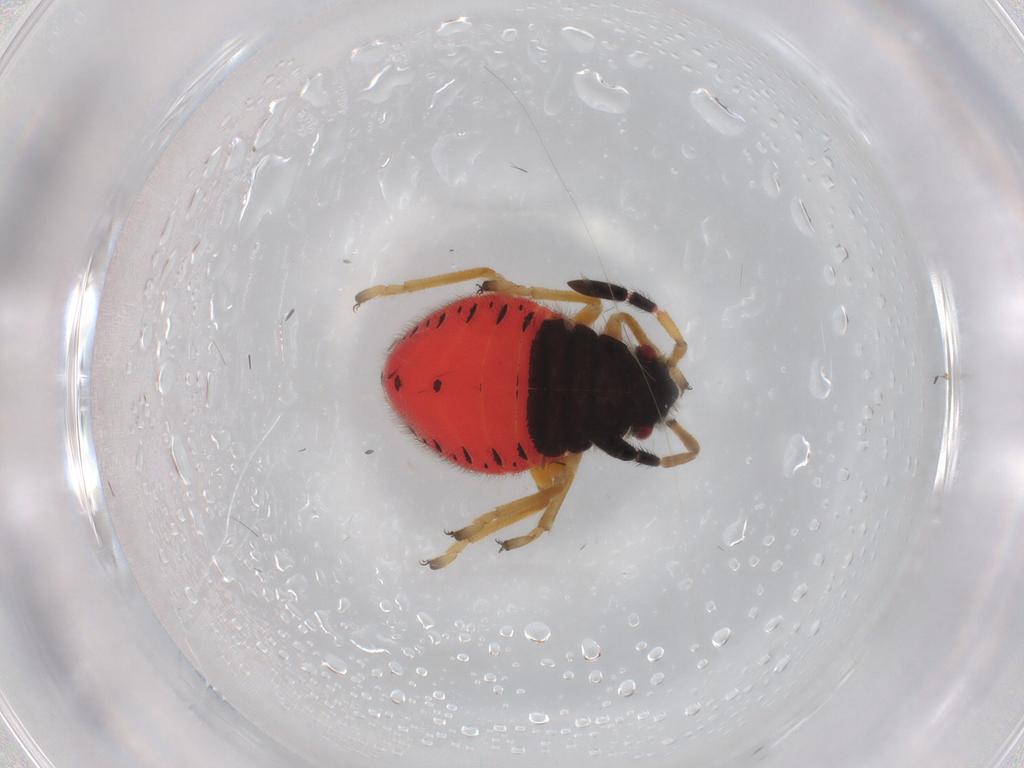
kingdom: Animalia
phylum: Arthropoda
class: Insecta
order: Hemiptera
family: Largidae
